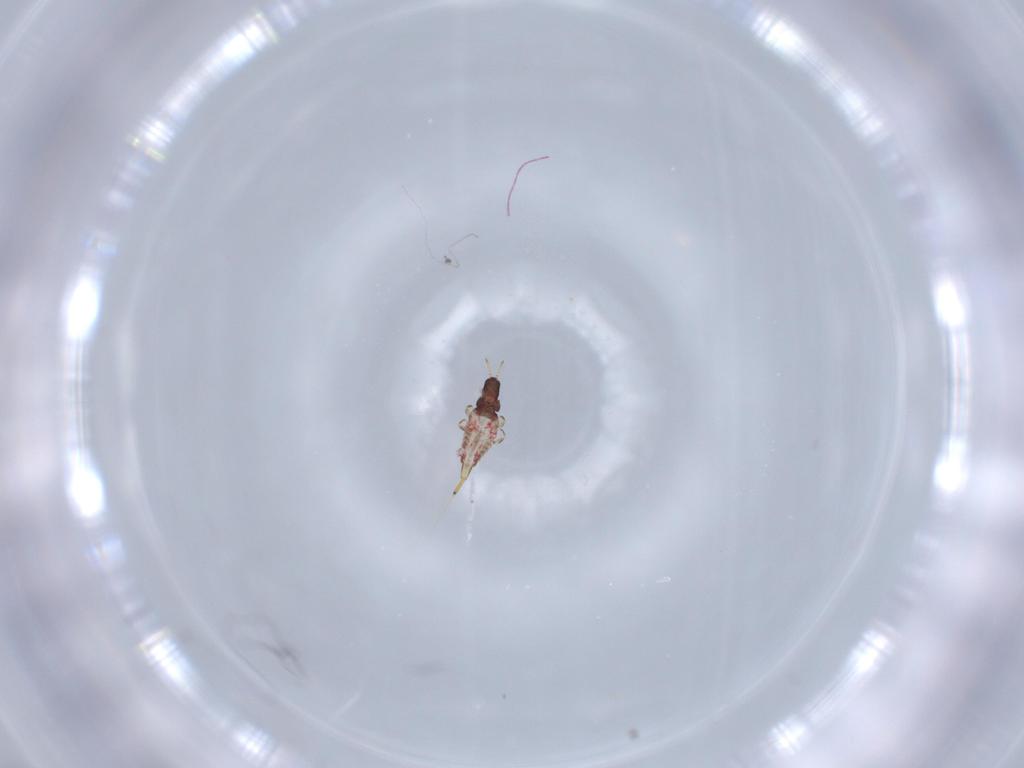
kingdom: Animalia
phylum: Arthropoda
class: Insecta
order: Thysanoptera
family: Phlaeothripidae
